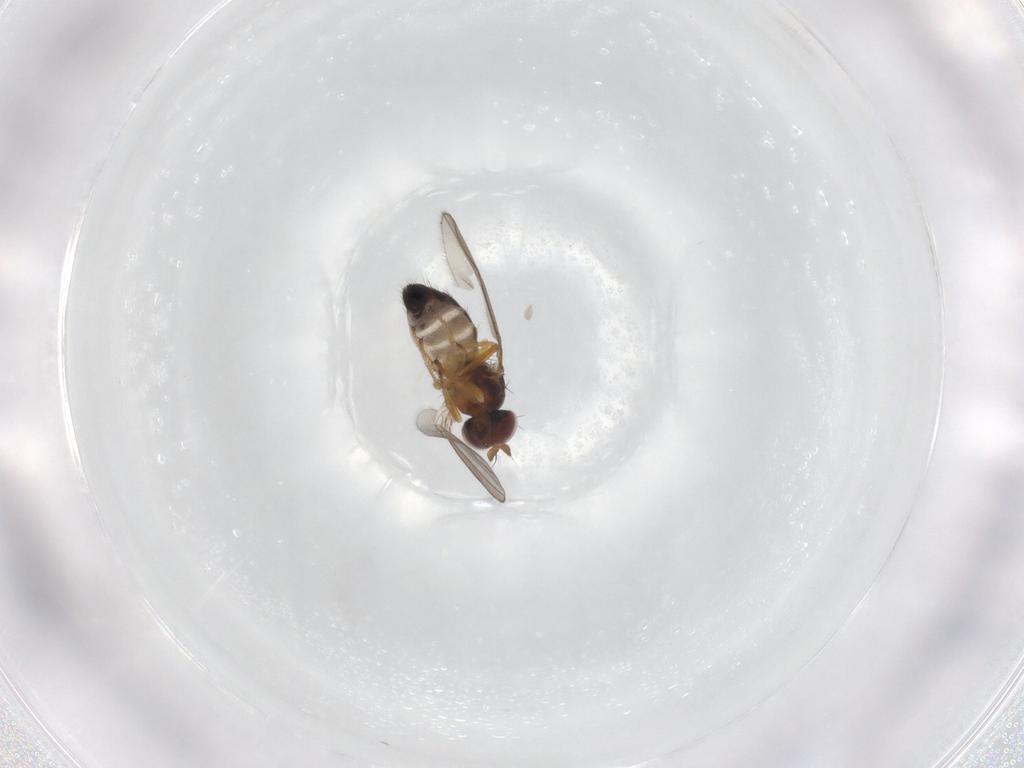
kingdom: Animalia
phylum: Arthropoda
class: Insecta
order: Diptera
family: Ephydridae
